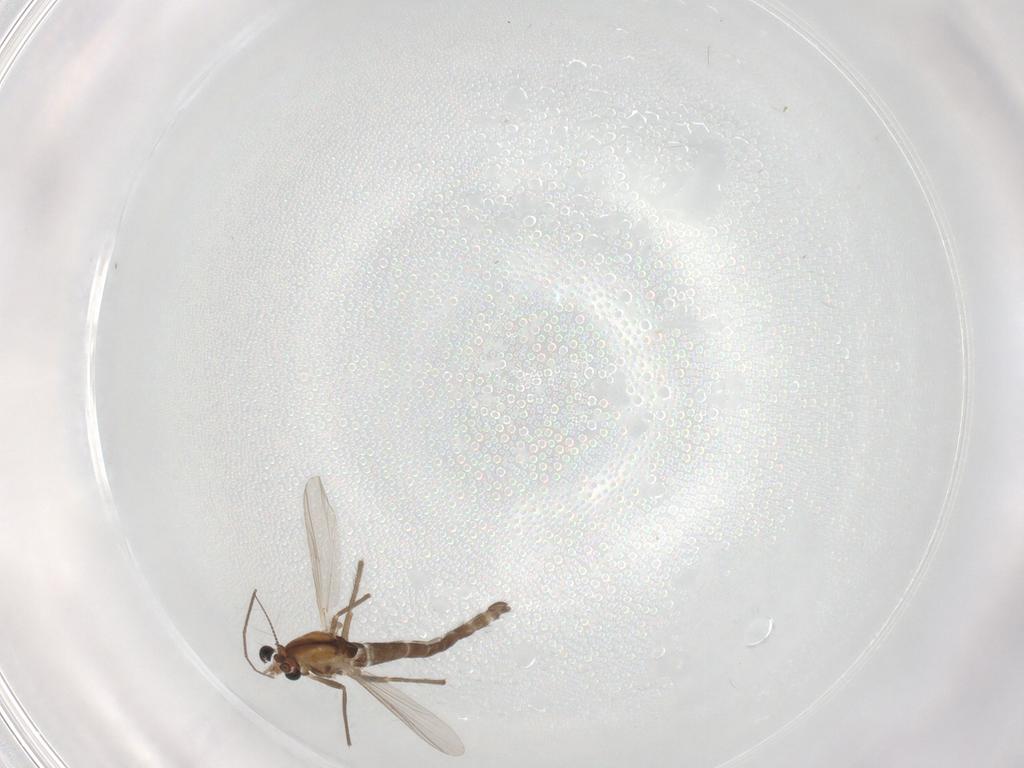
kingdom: Animalia
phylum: Arthropoda
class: Insecta
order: Diptera
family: Chironomidae
